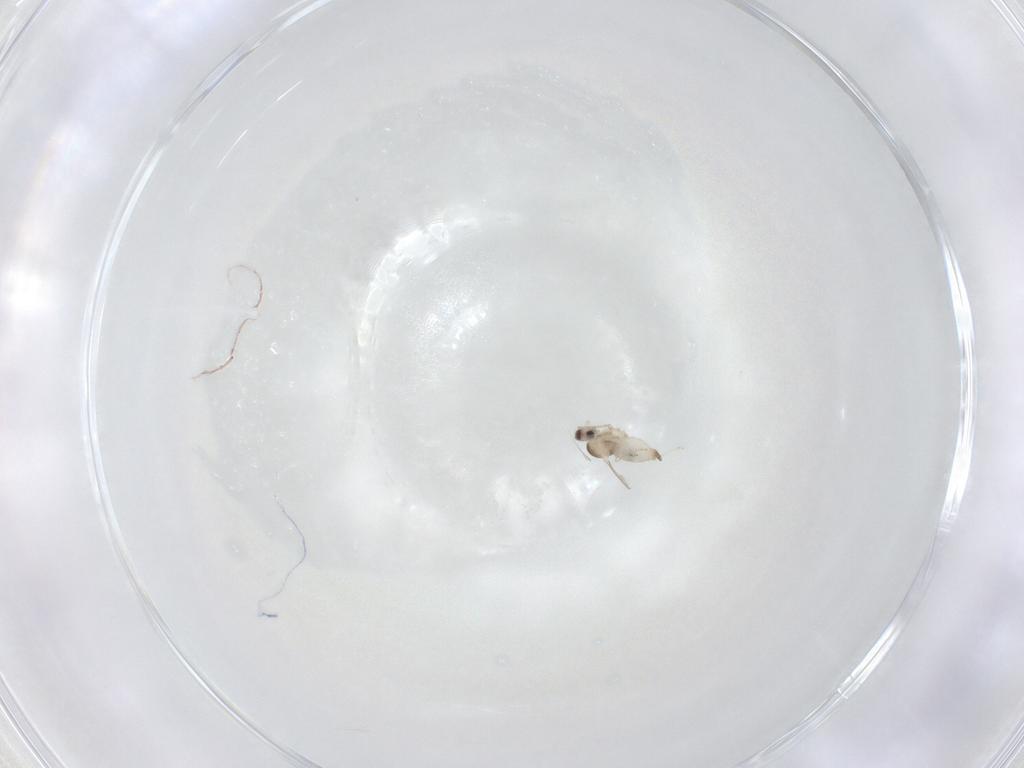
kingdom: Animalia
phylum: Arthropoda
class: Insecta
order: Diptera
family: Cecidomyiidae
